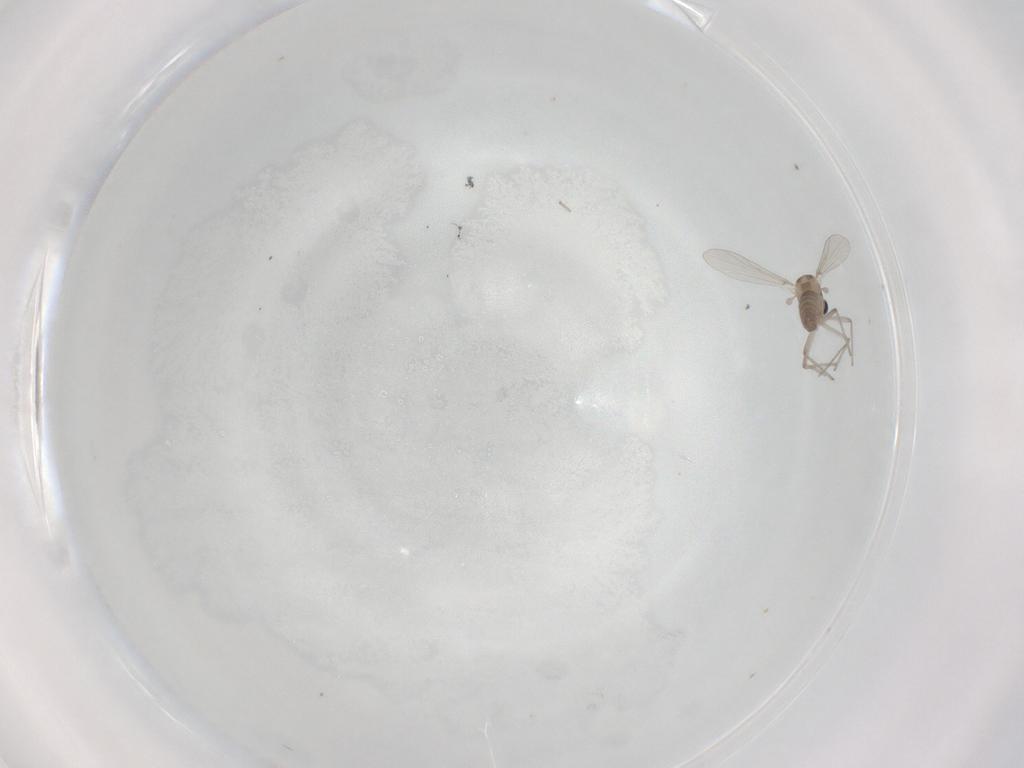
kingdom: Animalia
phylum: Arthropoda
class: Insecta
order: Diptera
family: Chironomidae
